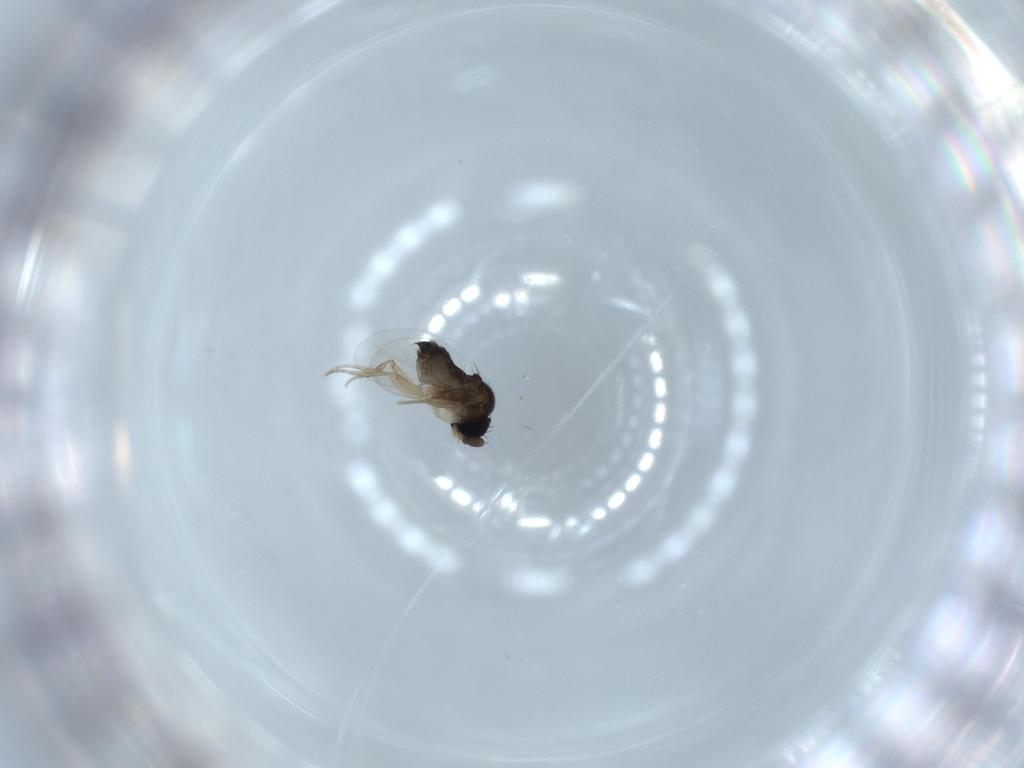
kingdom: Animalia
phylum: Arthropoda
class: Insecta
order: Diptera
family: Phoridae
